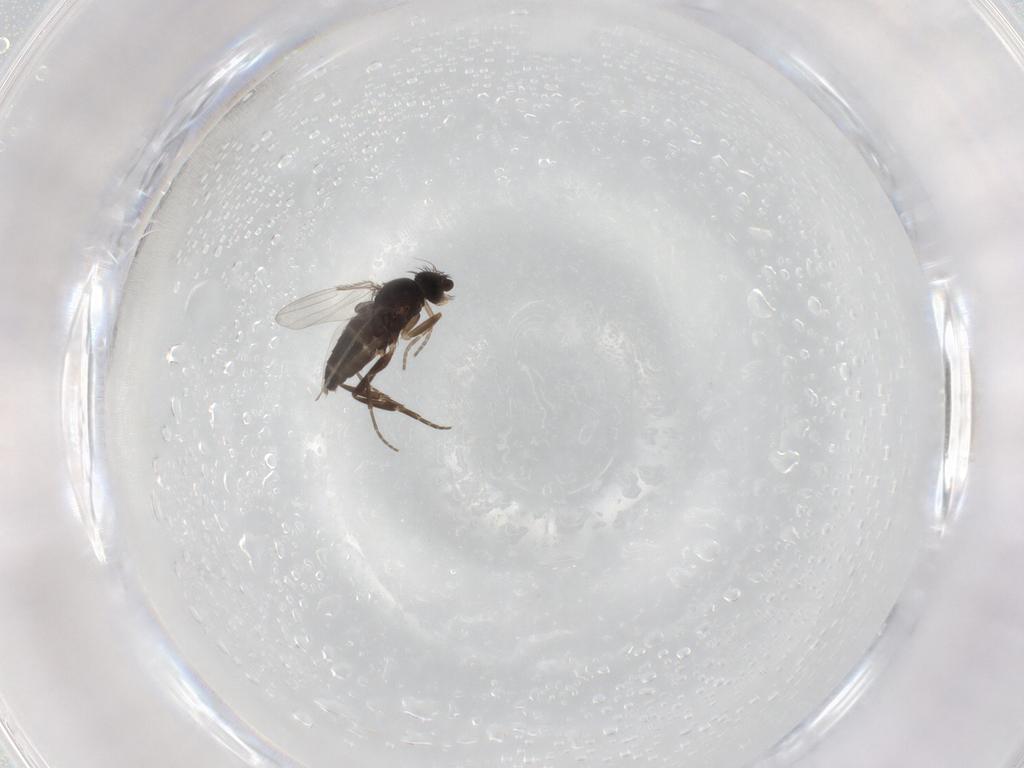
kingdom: Animalia
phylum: Arthropoda
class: Insecta
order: Diptera
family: Phoridae
